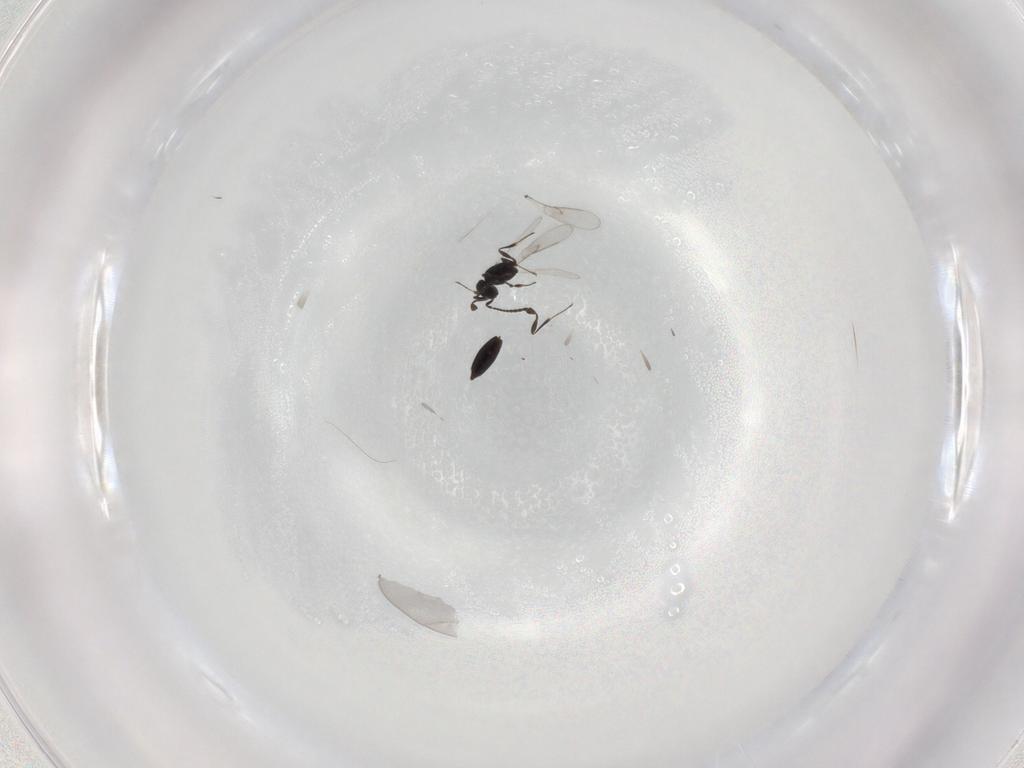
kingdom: Animalia
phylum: Arthropoda
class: Insecta
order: Hymenoptera
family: Scelionidae
